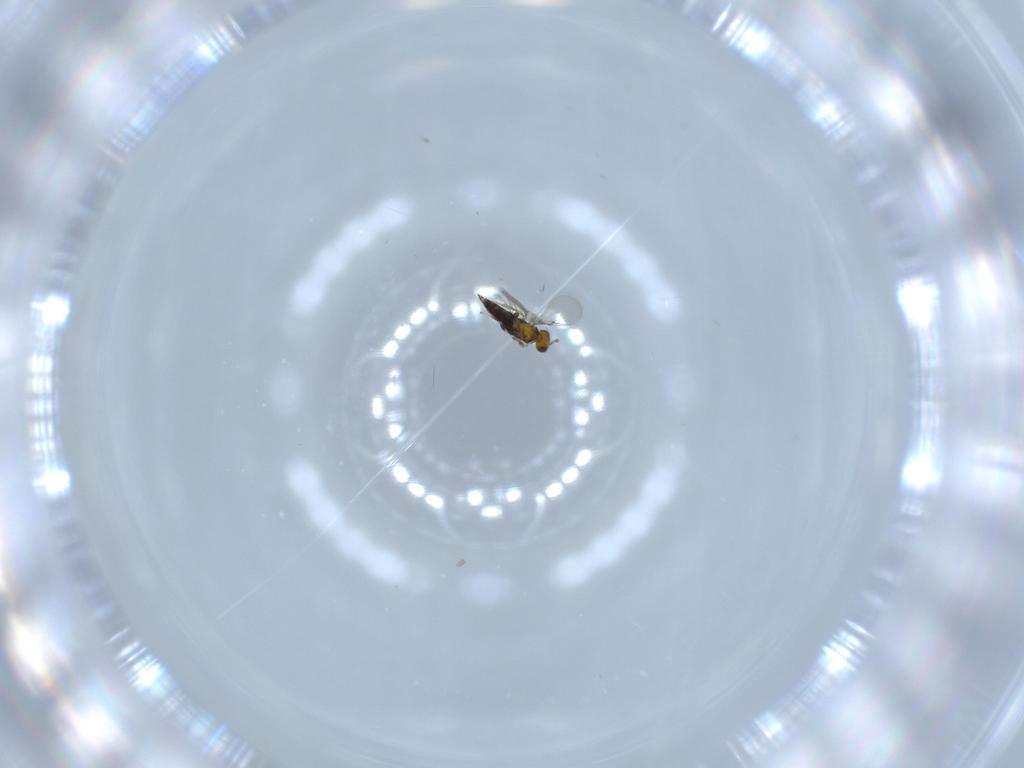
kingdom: Animalia
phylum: Arthropoda
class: Insecta
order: Hymenoptera
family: Trichogrammatidae
